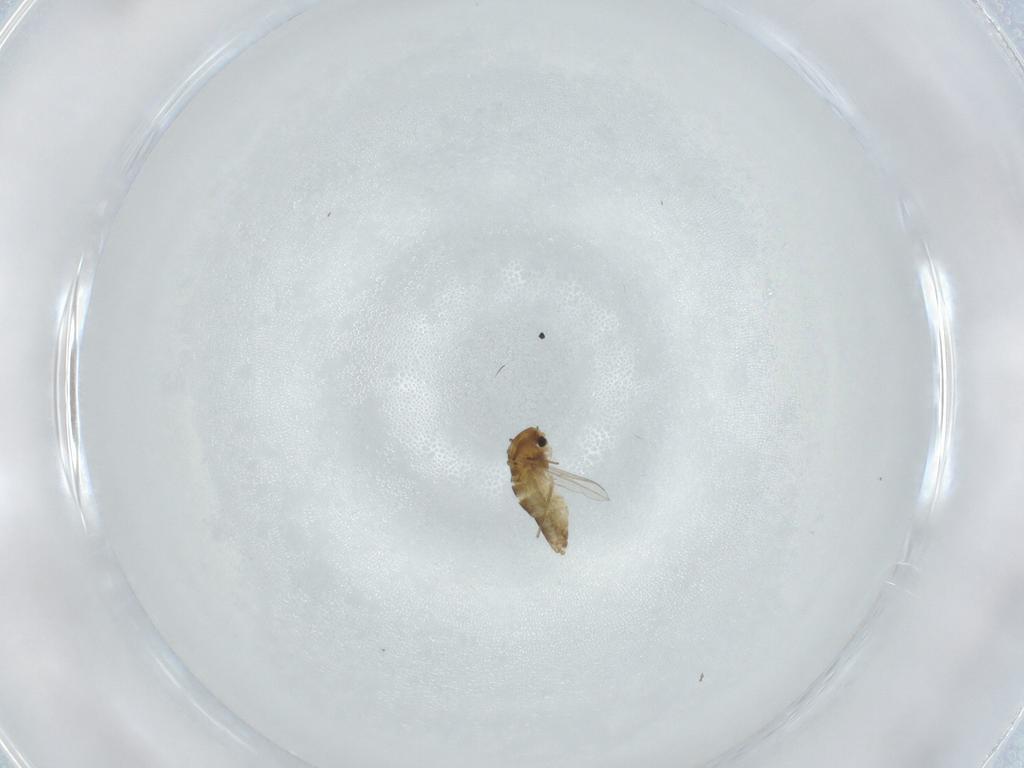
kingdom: Animalia
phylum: Arthropoda
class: Insecta
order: Diptera
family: Chironomidae
